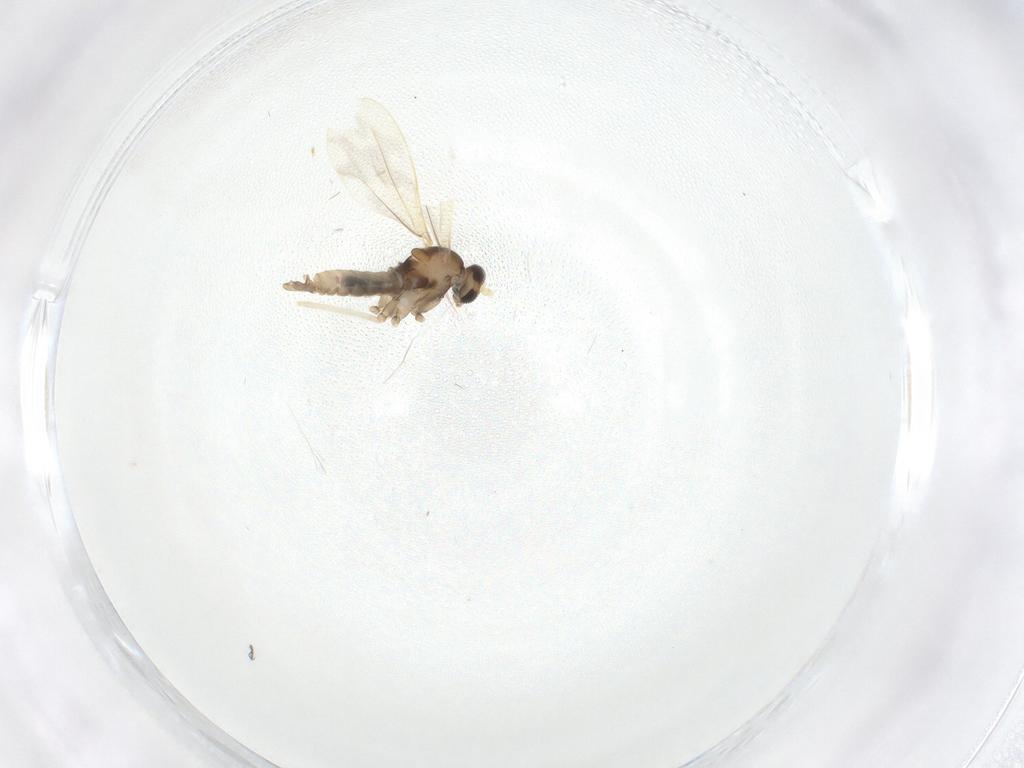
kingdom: Animalia
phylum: Arthropoda
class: Insecta
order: Diptera
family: Cecidomyiidae
